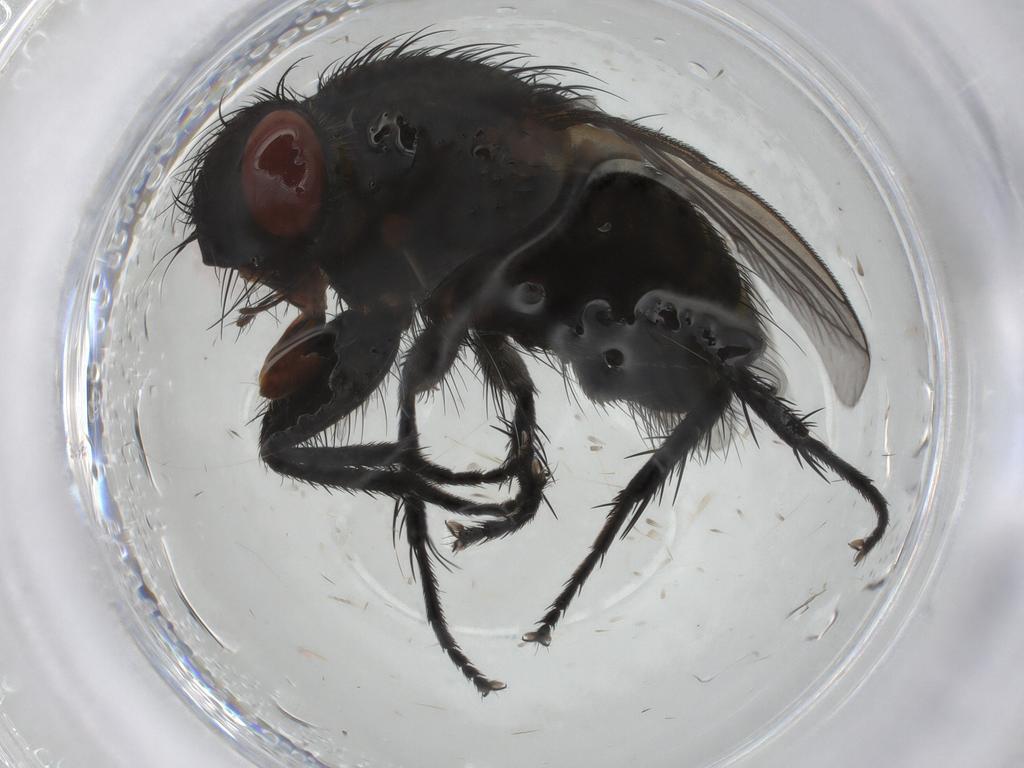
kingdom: Animalia
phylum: Arthropoda
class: Insecta
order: Diptera
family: Tachinidae
